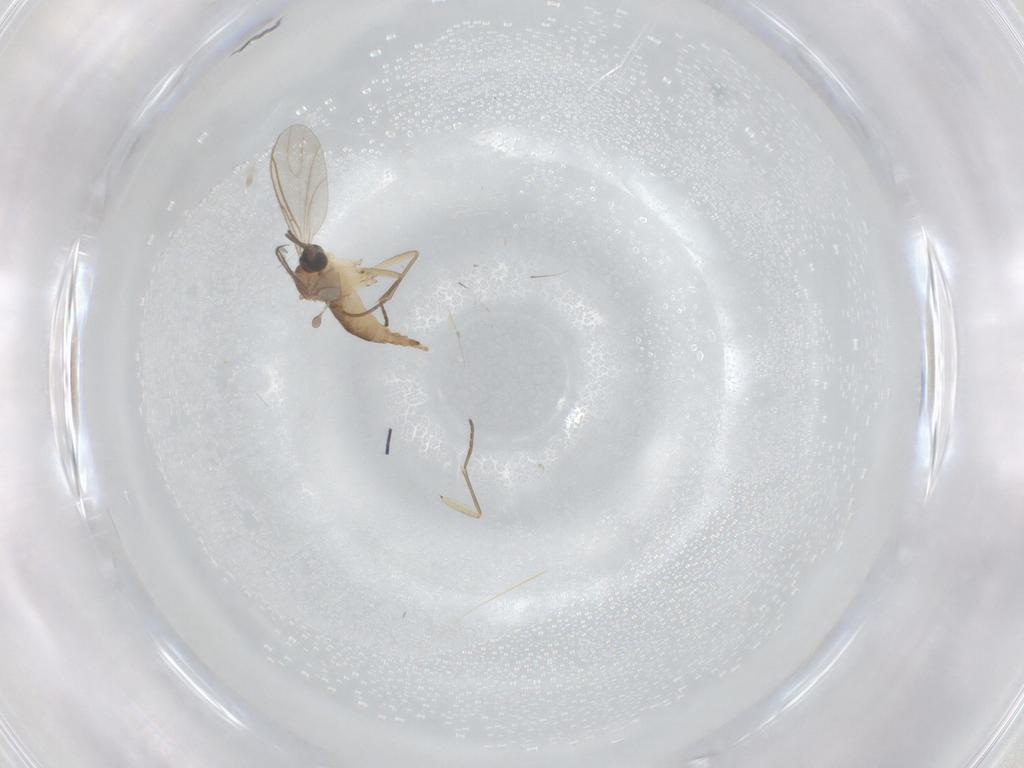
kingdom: Animalia
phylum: Arthropoda
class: Insecta
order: Diptera
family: Sciaridae
